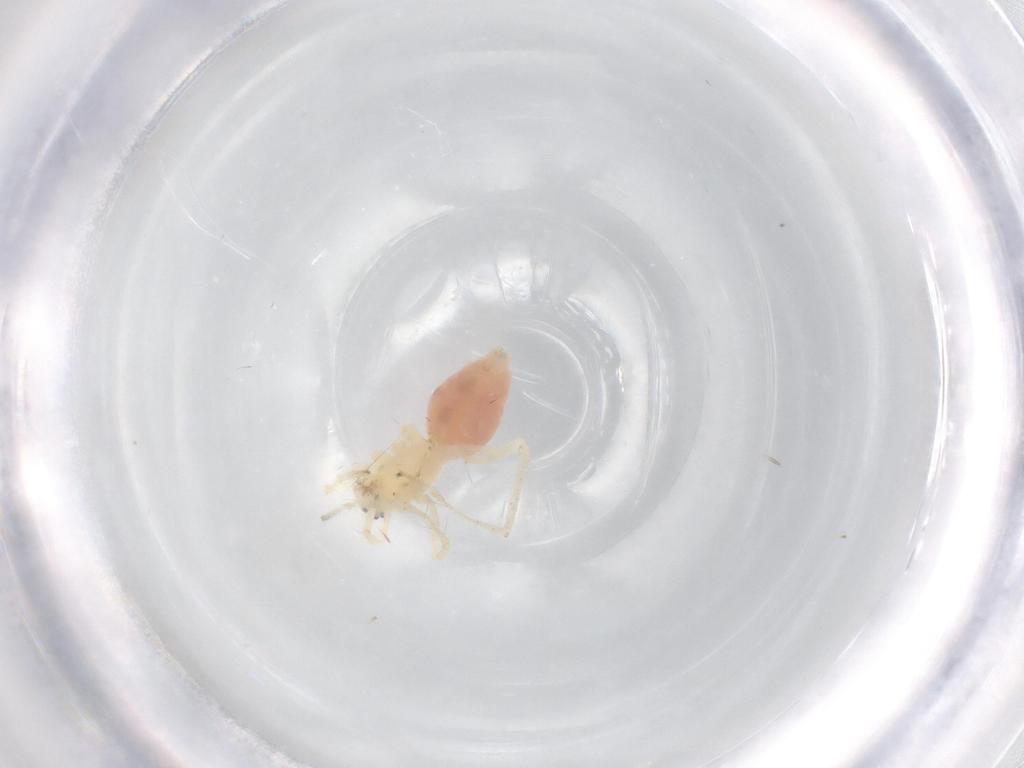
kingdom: Animalia
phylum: Arthropoda
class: Arachnida
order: Araneae
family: Anyphaenidae
